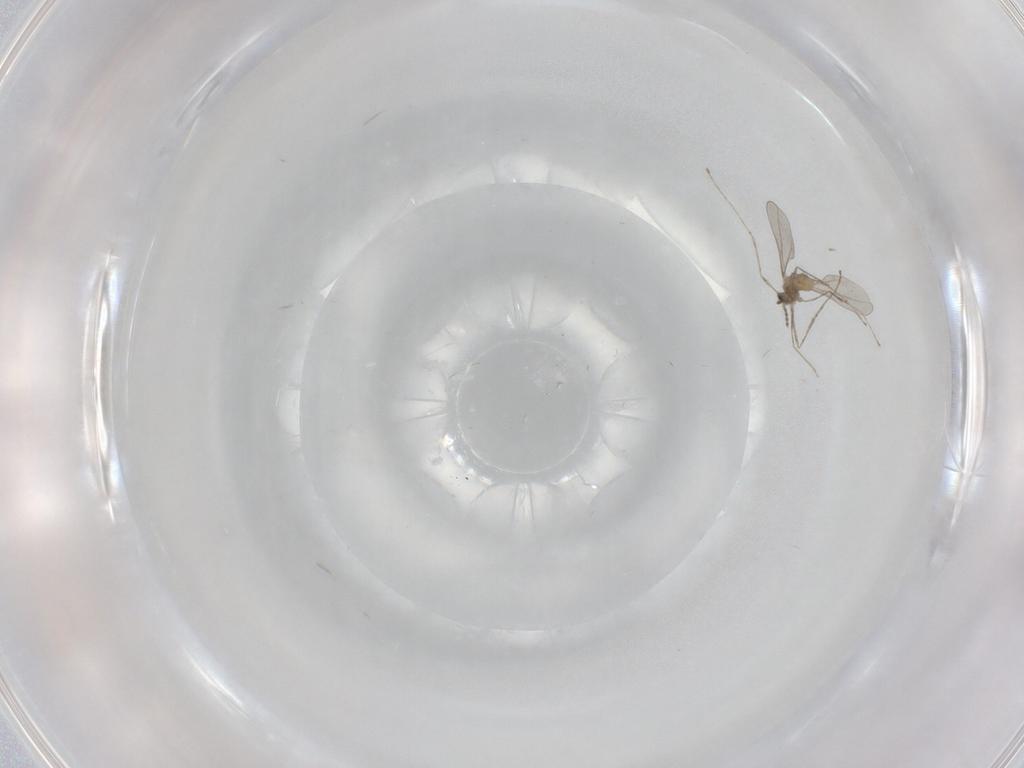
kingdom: Animalia
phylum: Arthropoda
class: Insecta
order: Diptera
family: Cecidomyiidae
